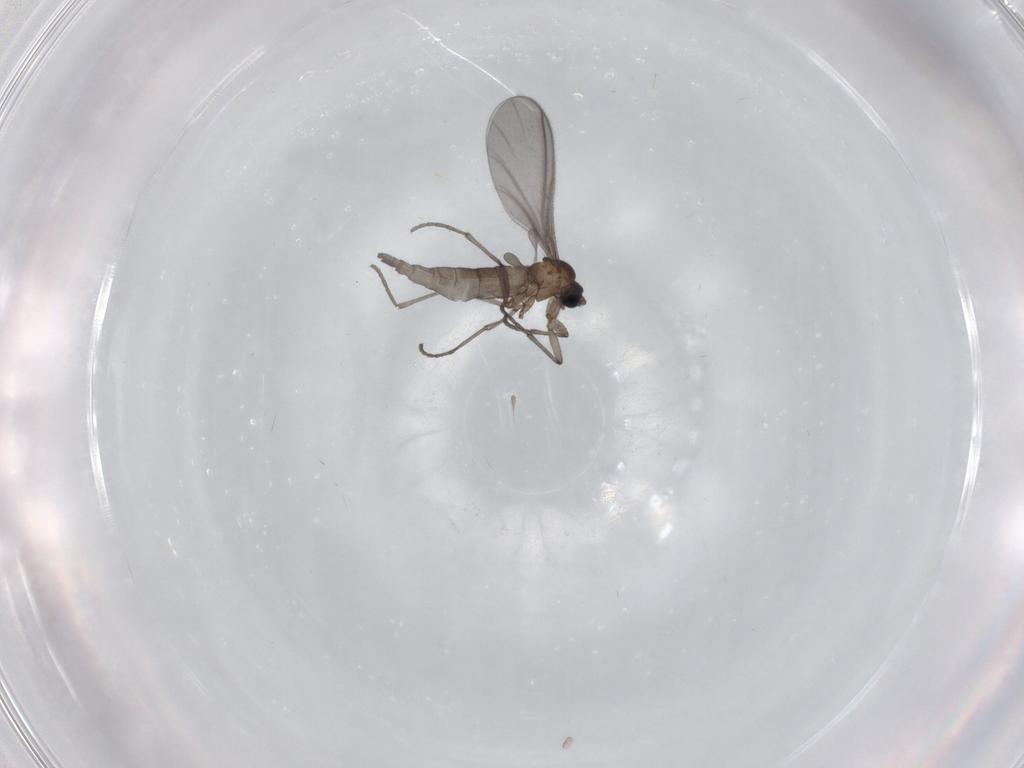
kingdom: Animalia
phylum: Arthropoda
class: Insecta
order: Diptera
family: Sciaridae
